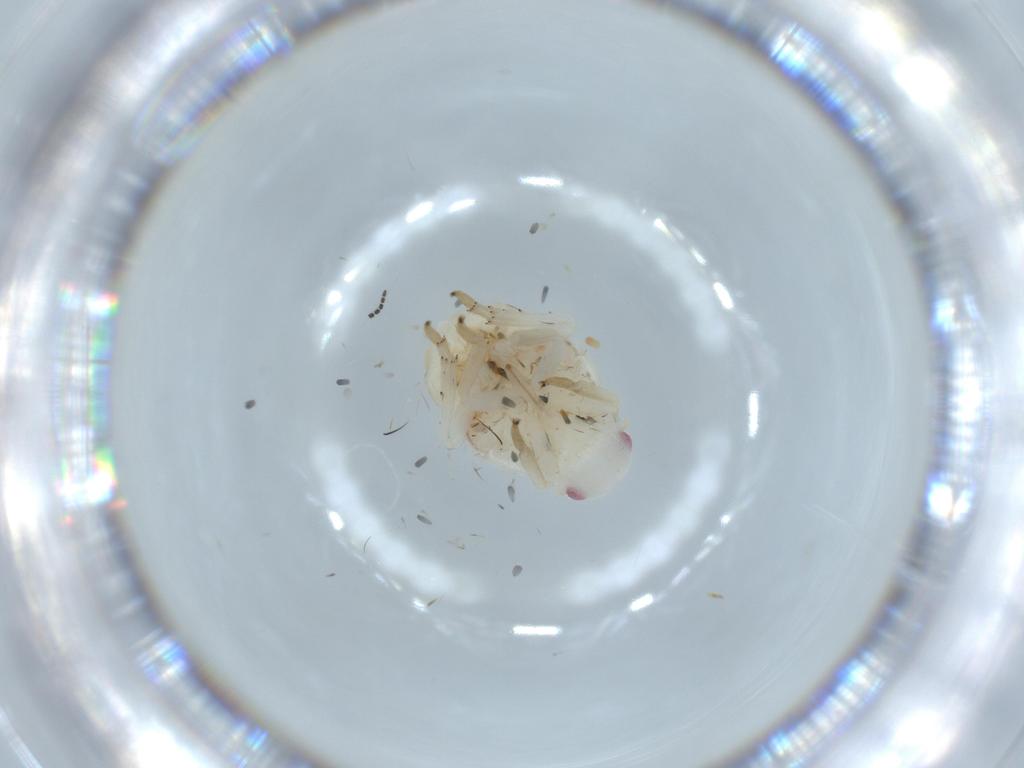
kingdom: Animalia
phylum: Arthropoda
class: Insecta
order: Hemiptera
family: Flatidae
